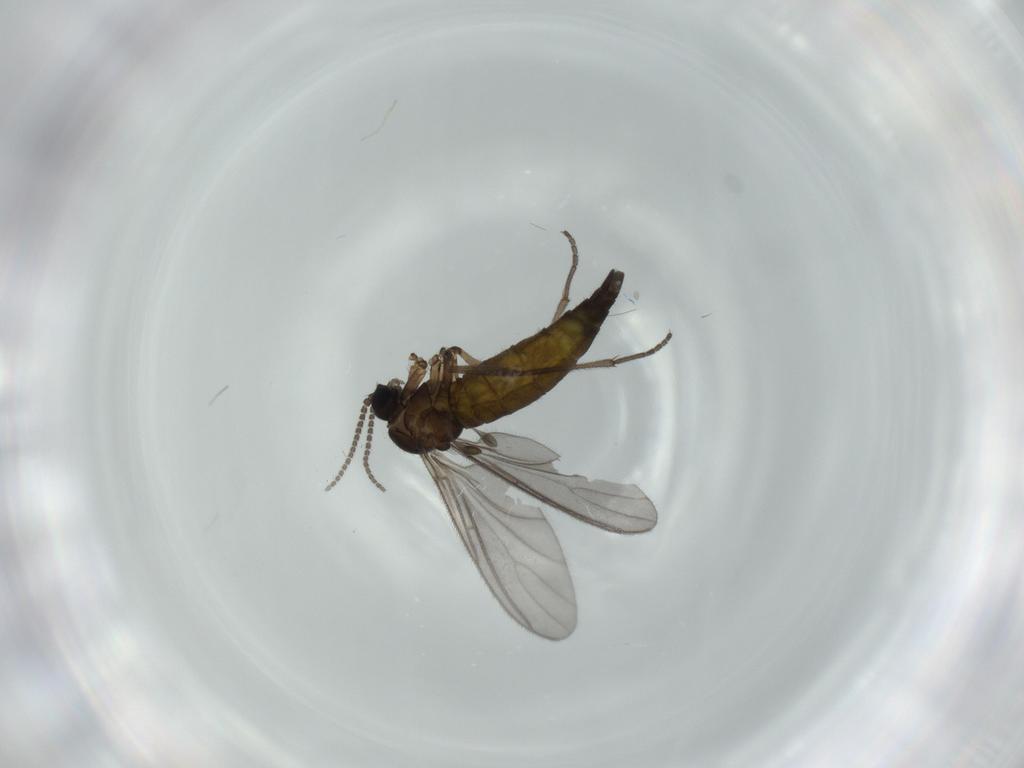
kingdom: Animalia
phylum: Arthropoda
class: Insecta
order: Diptera
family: Sciaridae
